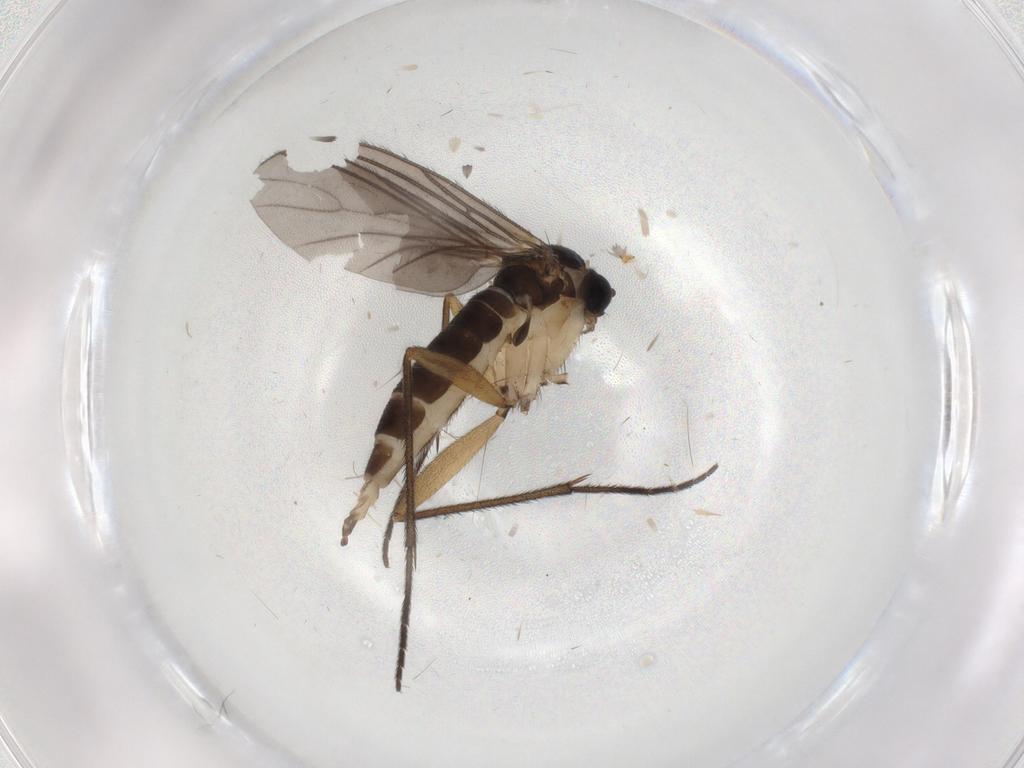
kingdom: Animalia
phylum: Arthropoda
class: Insecta
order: Diptera
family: Sciaridae
